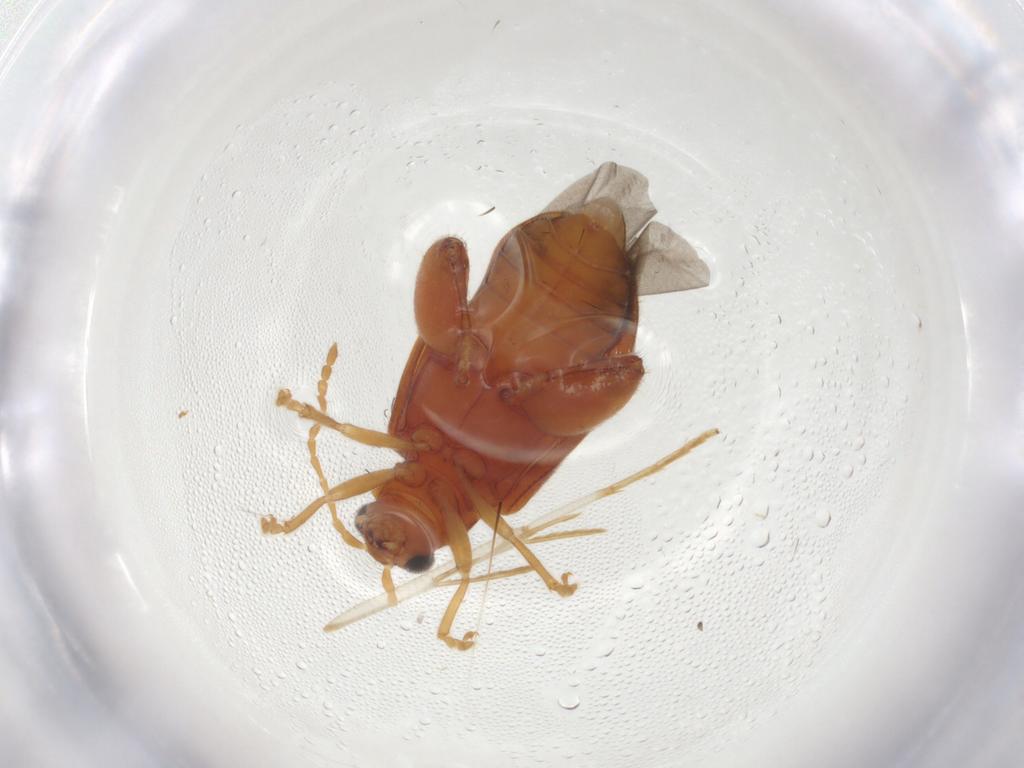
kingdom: Animalia
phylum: Arthropoda
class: Insecta
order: Coleoptera
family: Chrysomelidae
